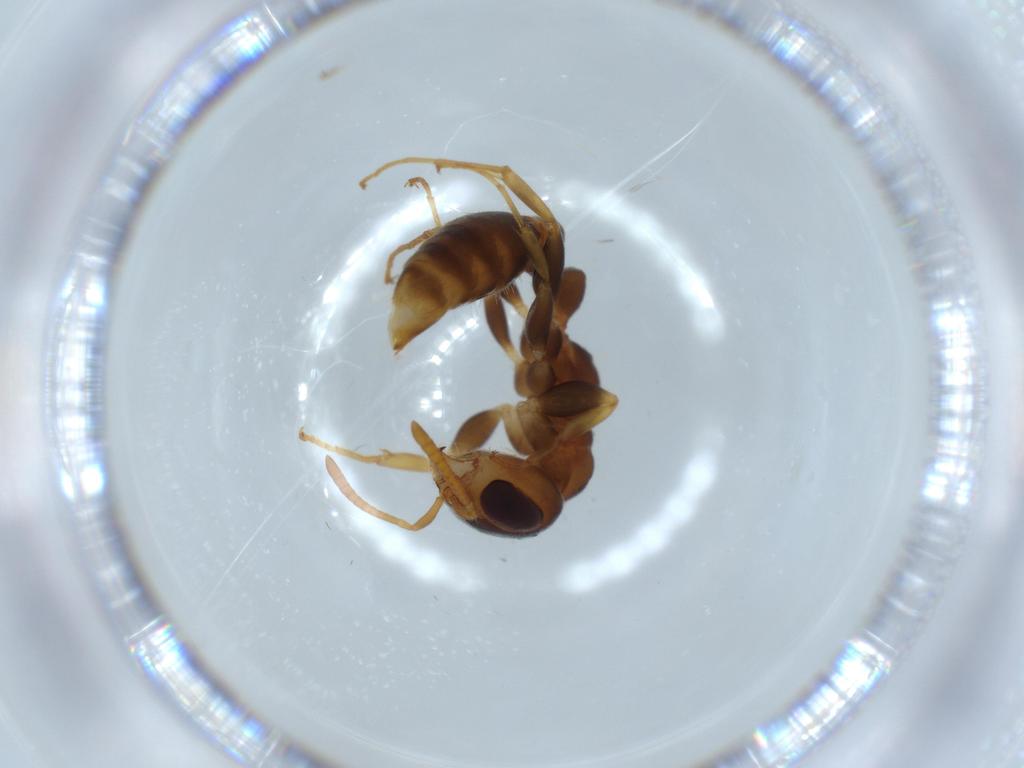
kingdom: Animalia
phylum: Arthropoda
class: Insecta
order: Hymenoptera
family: Formicidae
